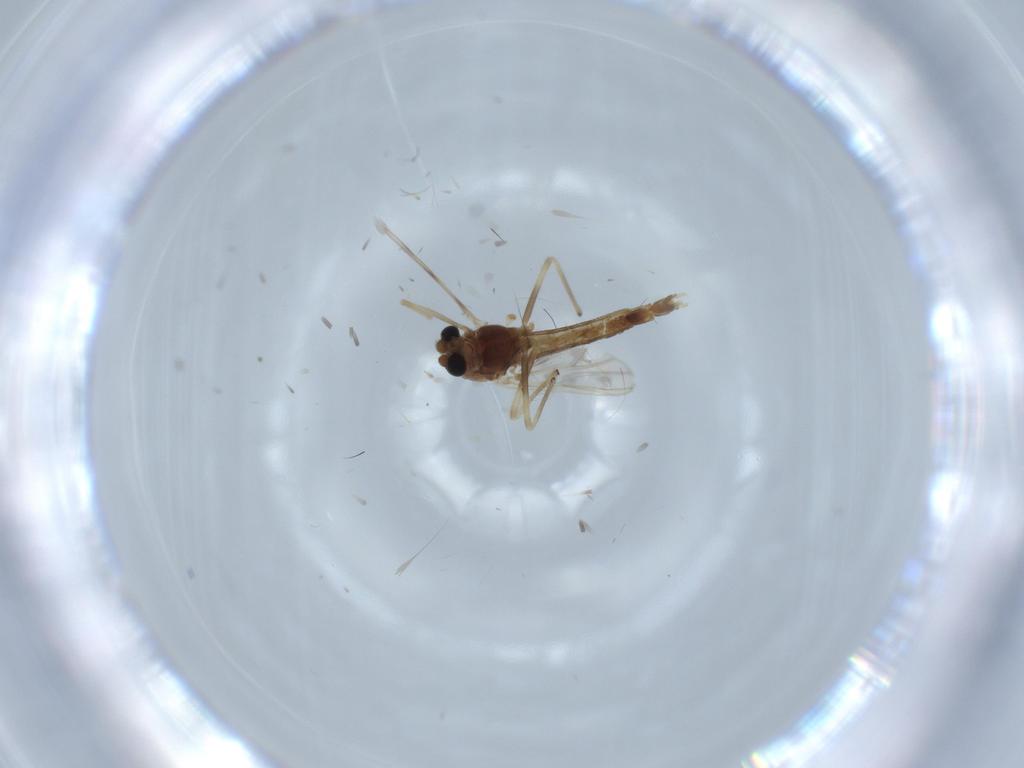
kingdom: Animalia
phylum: Arthropoda
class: Insecta
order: Diptera
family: Chironomidae
